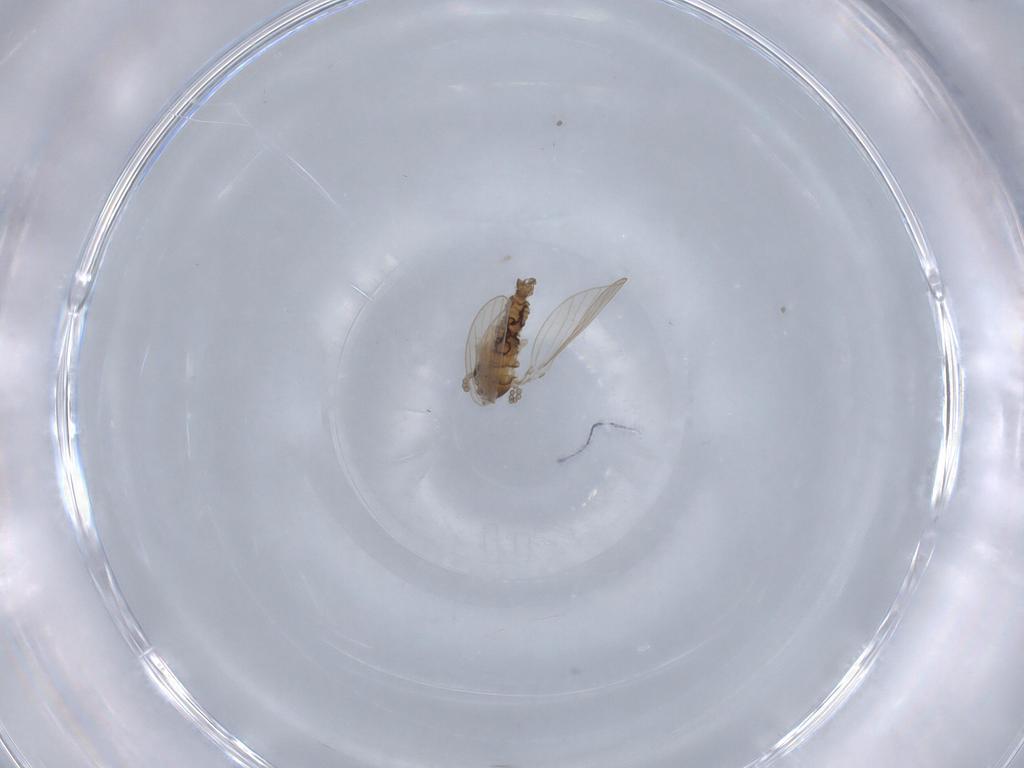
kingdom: Animalia
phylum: Arthropoda
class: Insecta
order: Diptera
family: Psychodidae
